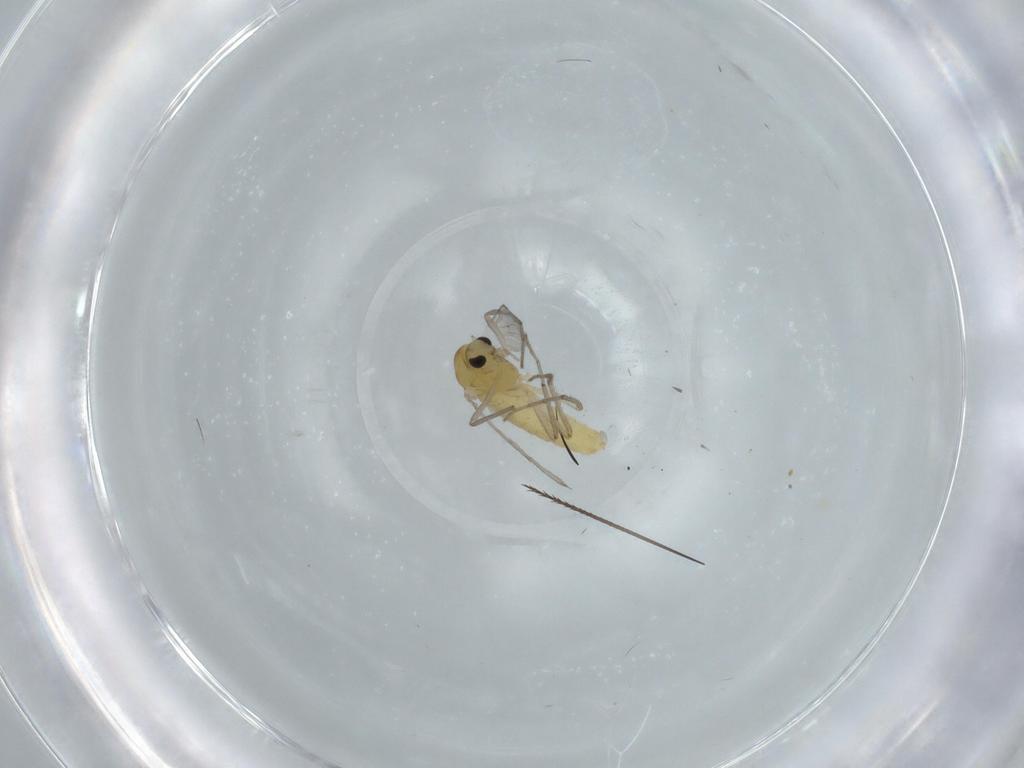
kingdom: Animalia
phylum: Arthropoda
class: Insecta
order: Diptera
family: Chironomidae
